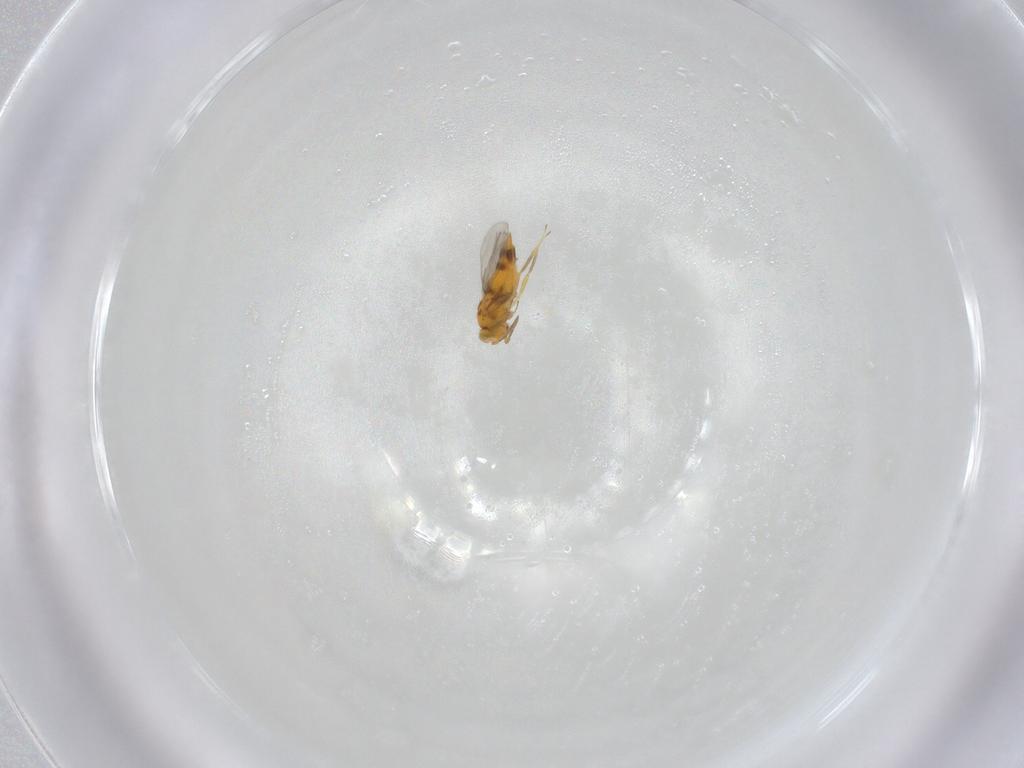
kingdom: Animalia
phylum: Arthropoda
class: Insecta
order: Hymenoptera
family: Aphelinidae
